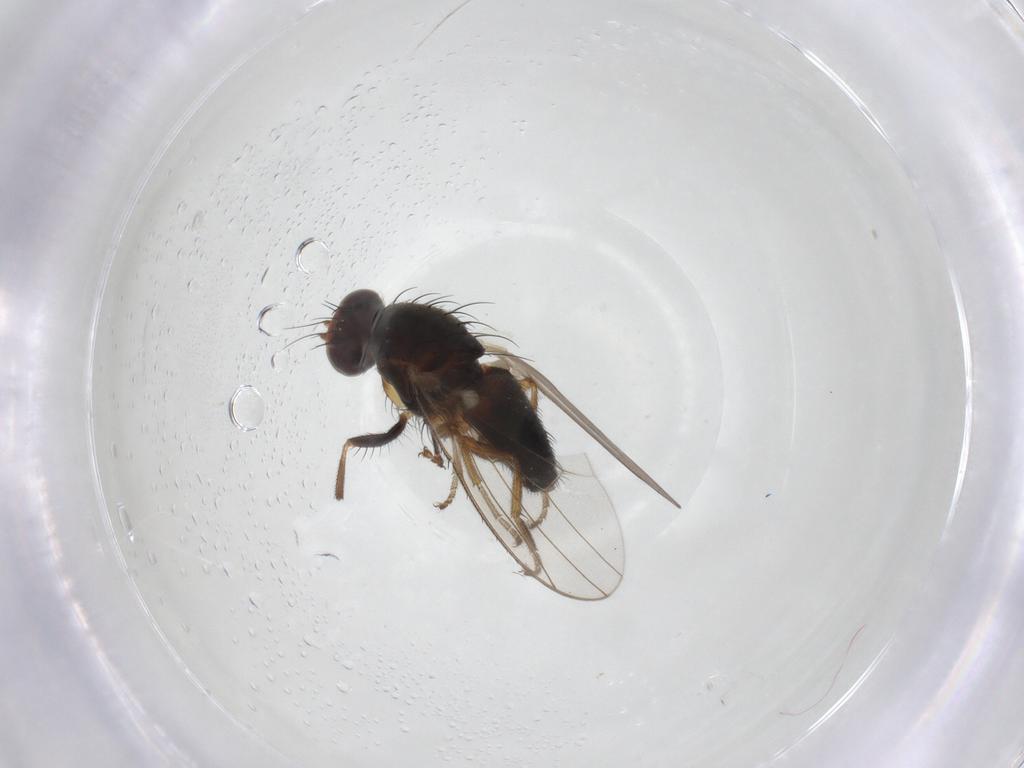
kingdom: Animalia
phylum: Arthropoda
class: Insecta
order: Diptera
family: Heleomyzidae
